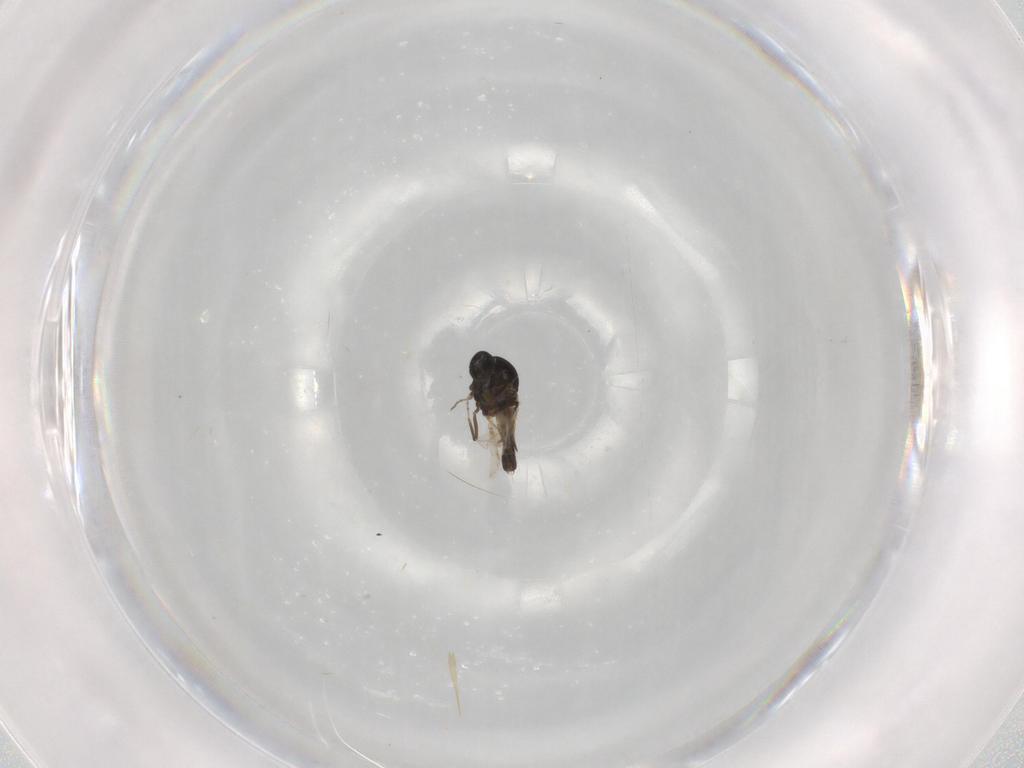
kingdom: Animalia
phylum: Arthropoda
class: Insecta
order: Diptera
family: Ceratopogonidae
